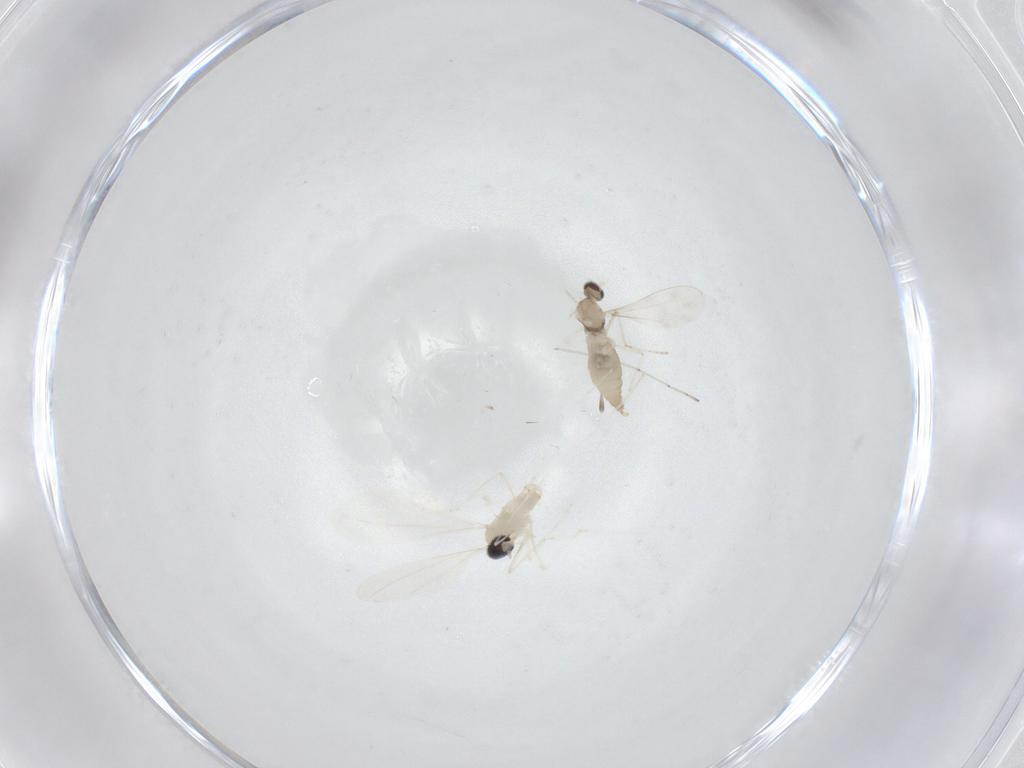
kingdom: Animalia
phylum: Arthropoda
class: Insecta
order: Diptera
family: Cecidomyiidae
